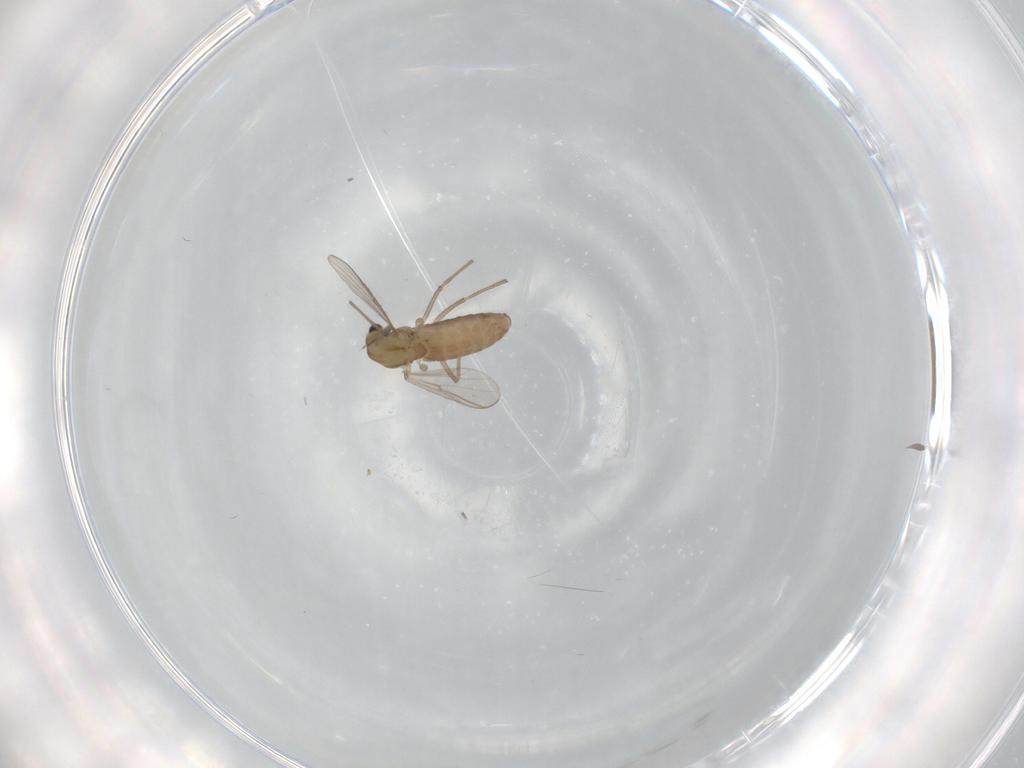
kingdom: Animalia
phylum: Arthropoda
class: Insecta
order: Diptera
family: Chironomidae
